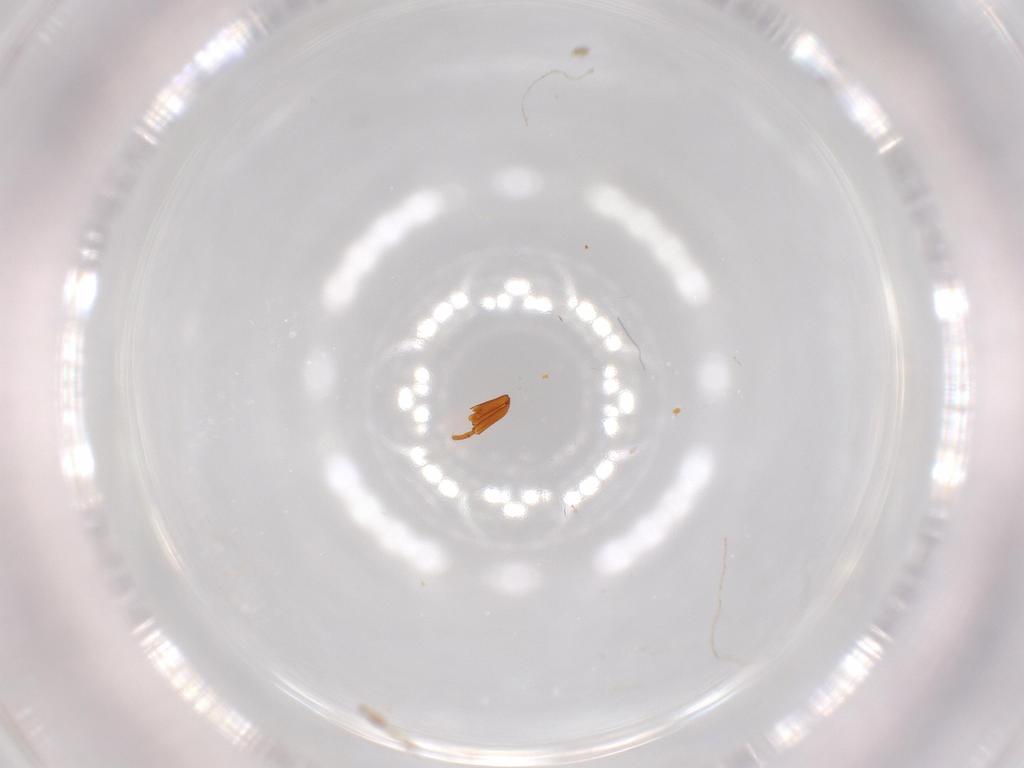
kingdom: Animalia
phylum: Arthropoda
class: Insecta
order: Coleoptera
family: Ptinidae
